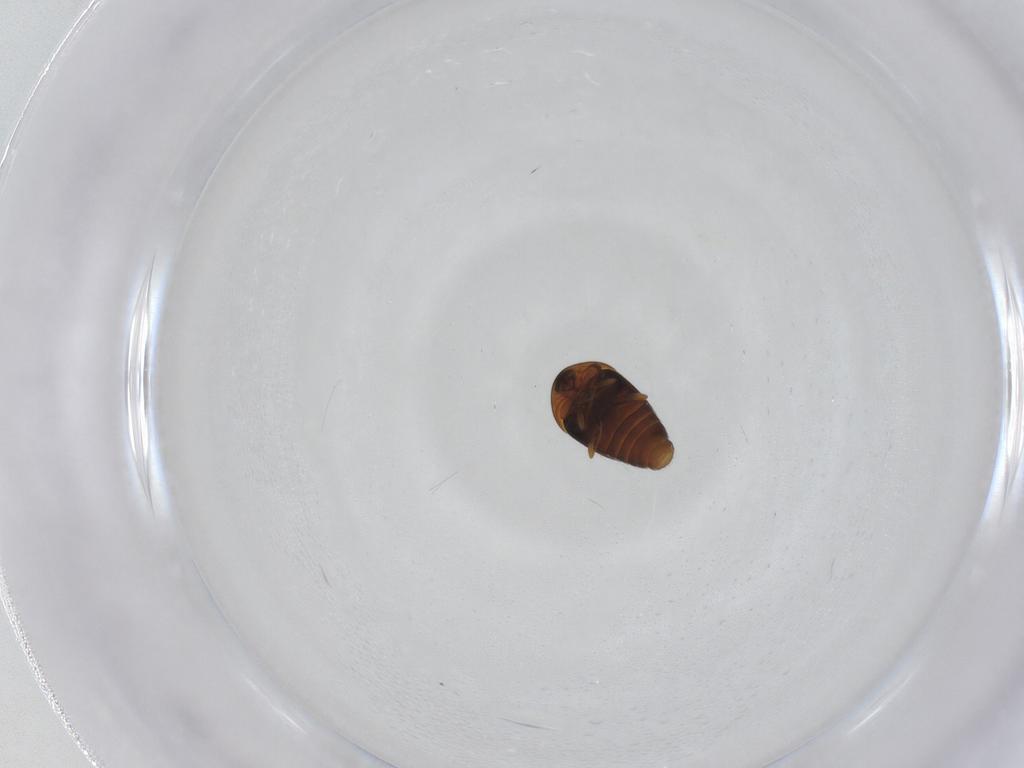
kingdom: Animalia
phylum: Arthropoda
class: Insecta
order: Coleoptera
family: Corylophidae
